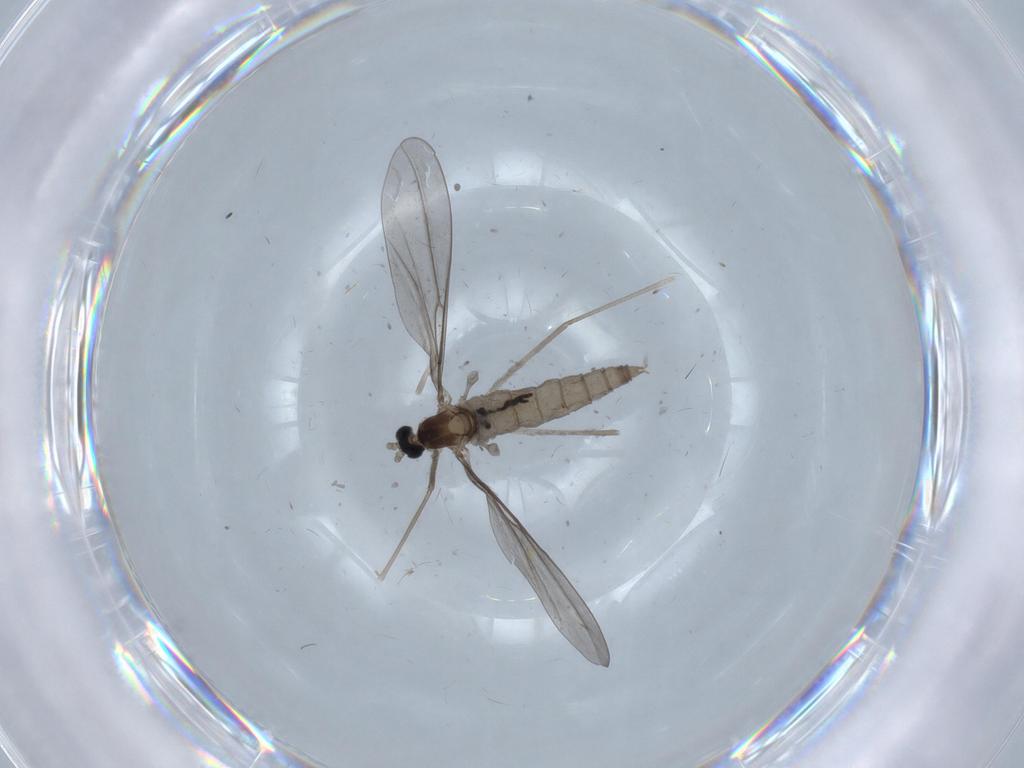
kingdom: Animalia
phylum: Arthropoda
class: Insecta
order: Diptera
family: Cecidomyiidae
